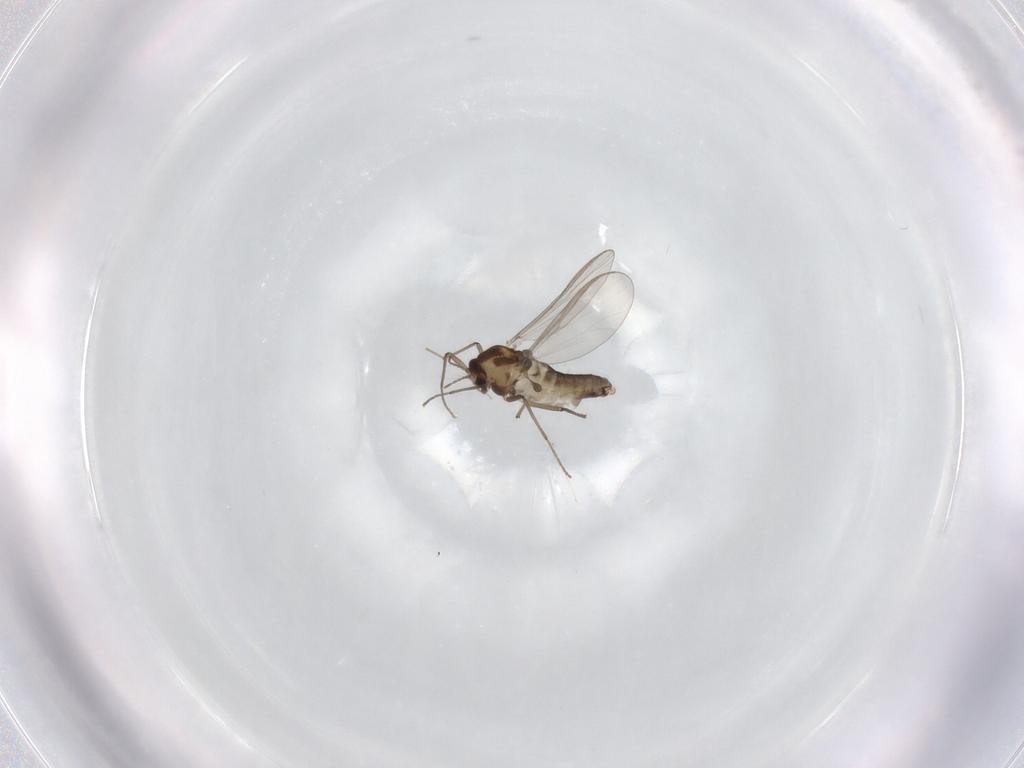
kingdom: Animalia
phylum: Arthropoda
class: Insecta
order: Diptera
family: Chironomidae
